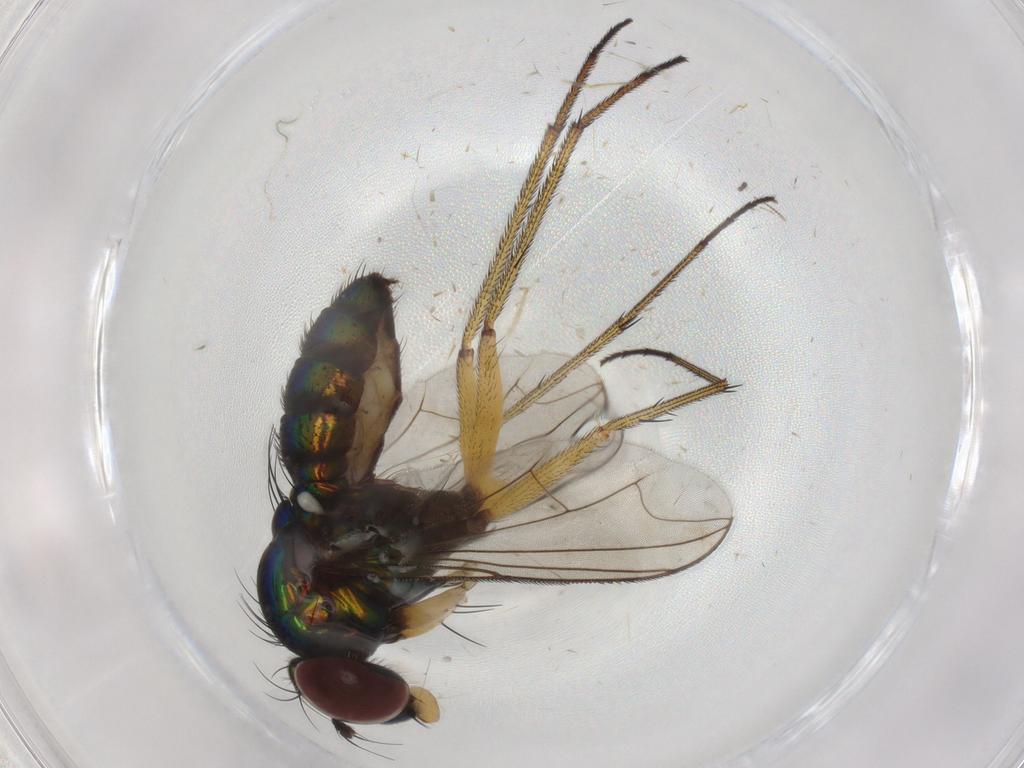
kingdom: Animalia
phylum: Arthropoda
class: Insecta
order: Diptera
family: Dolichopodidae
